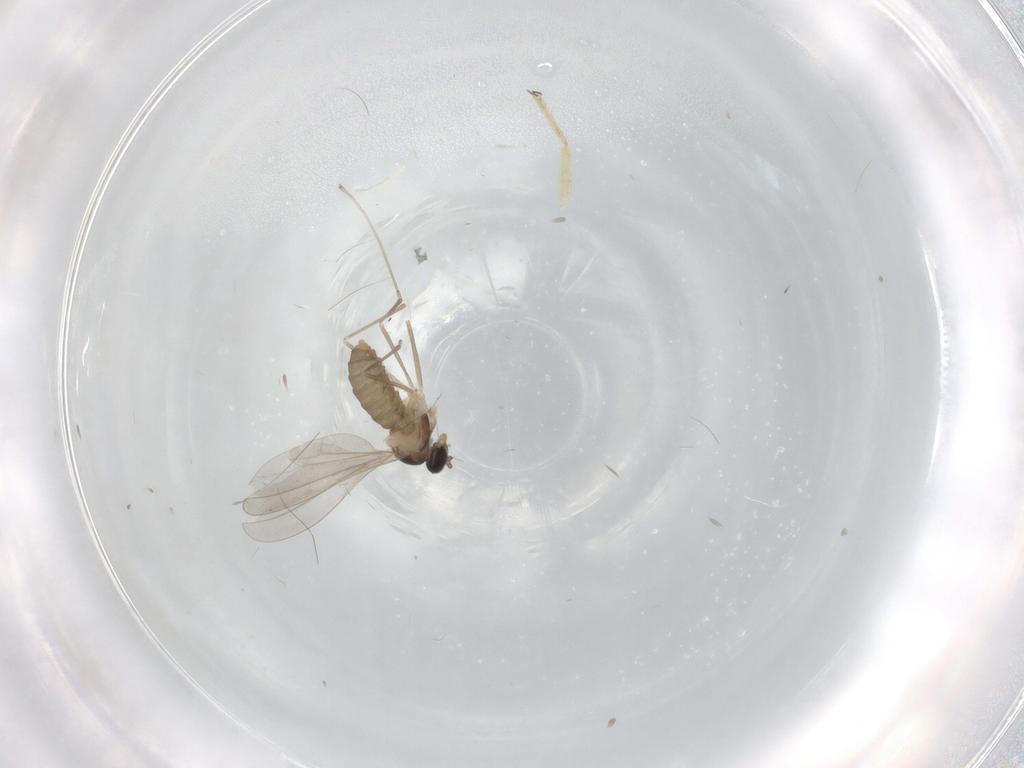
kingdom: Animalia
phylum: Arthropoda
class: Insecta
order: Diptera
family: Cecidomyiidae
